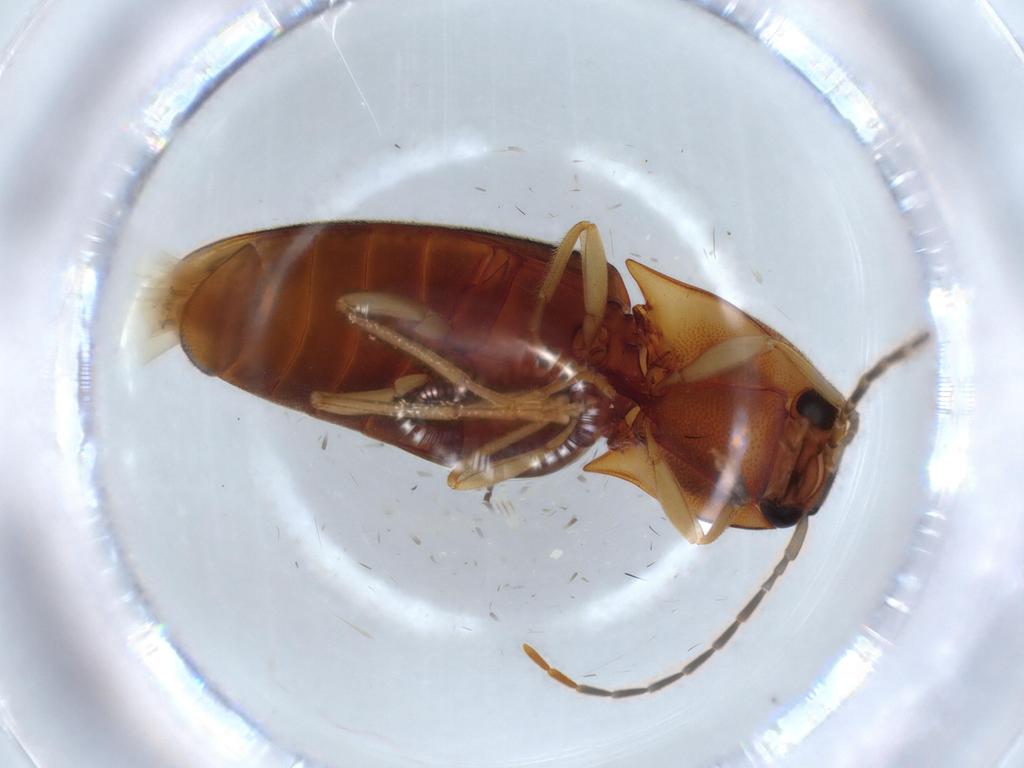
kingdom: Animalia
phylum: Arthropoda
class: Insecta
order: Coleoptera
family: Elateridae
